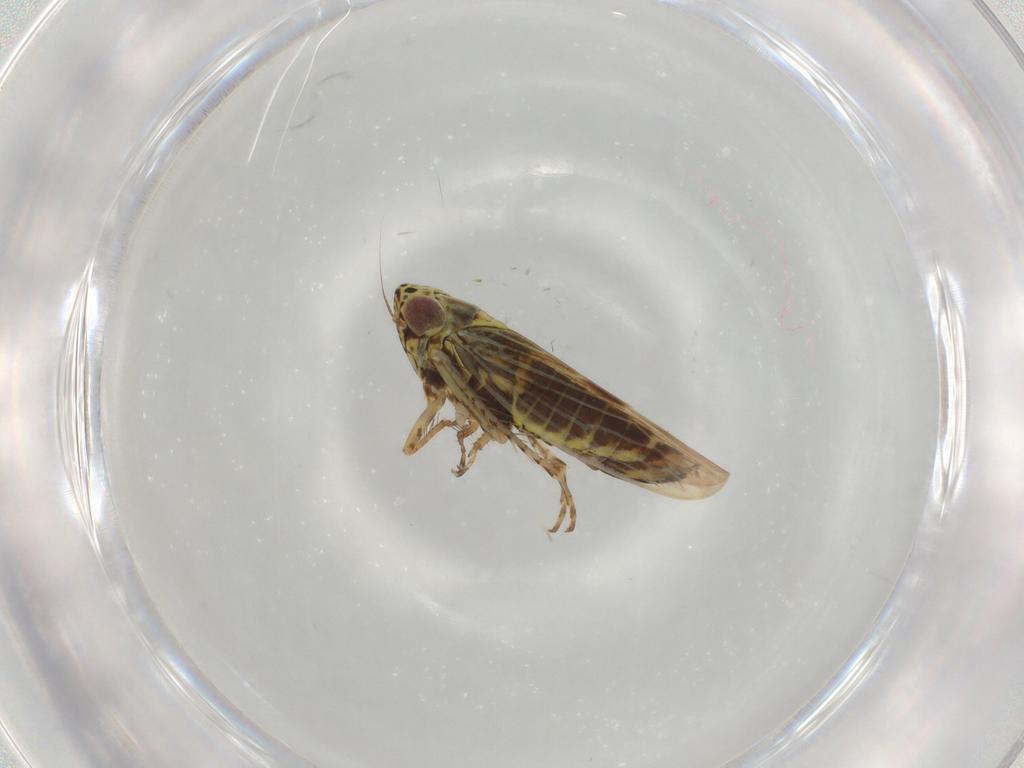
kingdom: Animalia
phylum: Arthropoda
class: Insecta
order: Hemiptera
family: Cicadellidae
